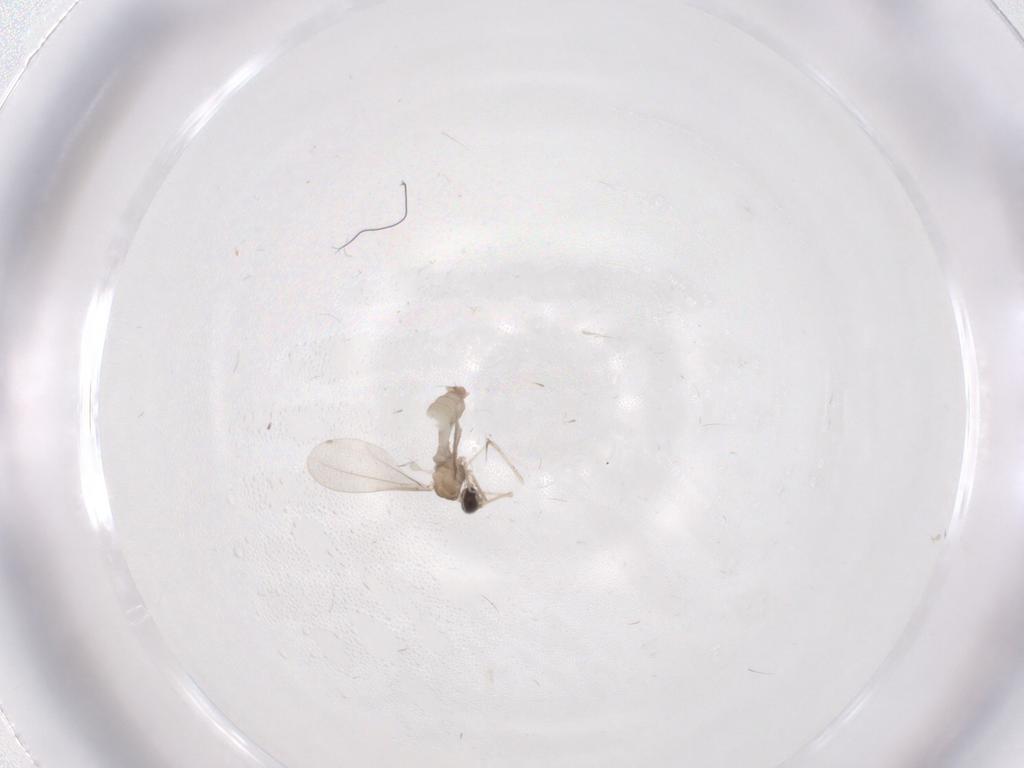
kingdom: Animalia
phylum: Arthropoda
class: Insecta
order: Diptera
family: Cecidomyiidae
